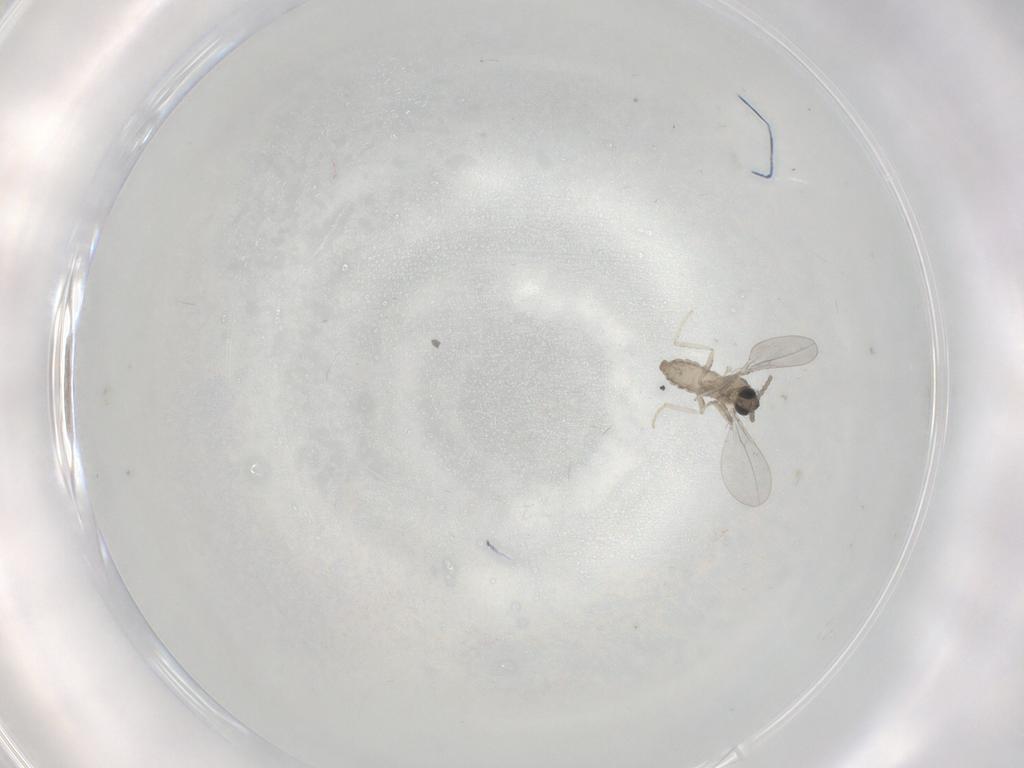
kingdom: Animalia
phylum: Arthropoda
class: Insecta
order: Diptera
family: Cecidomyiidae
